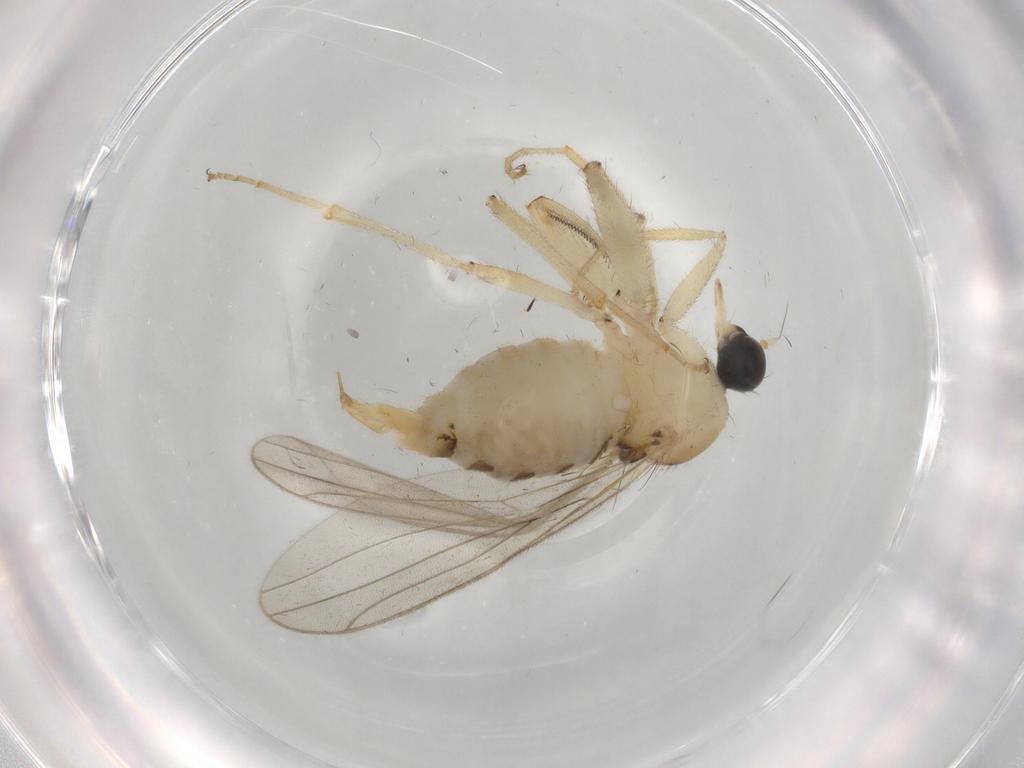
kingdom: Animalia
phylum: Arthropoda
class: Insecta
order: Diptera
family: Hybotidae
